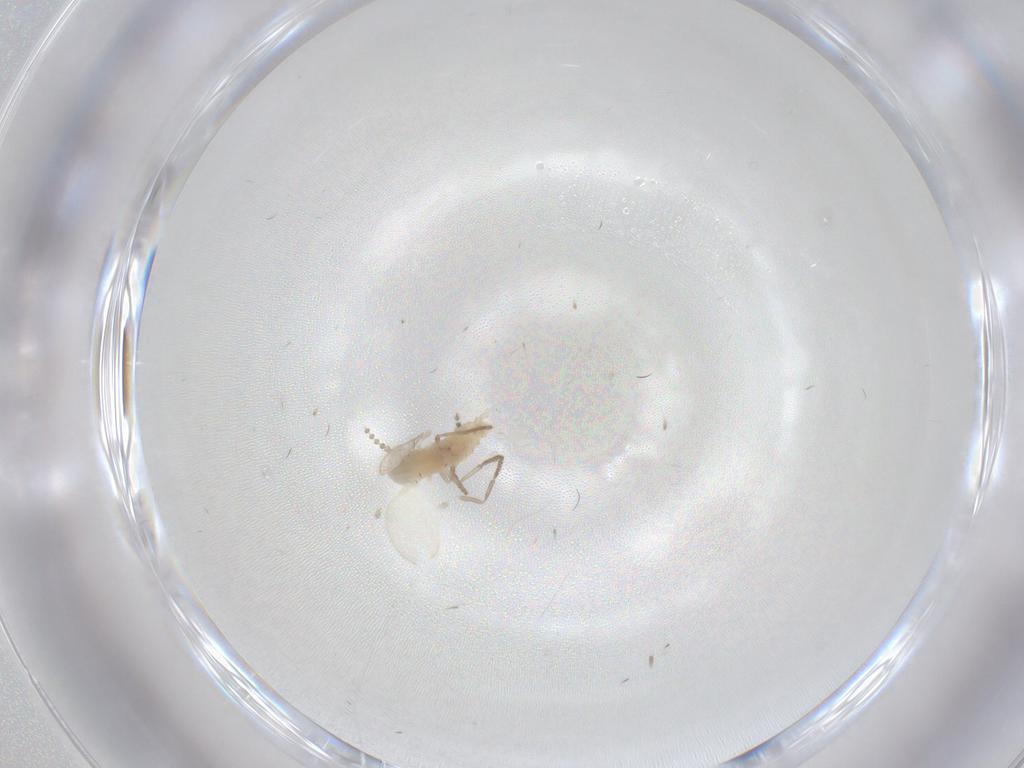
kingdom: Animalia
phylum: Arthropoda
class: Insecta
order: Diptera
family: Psychodidae
